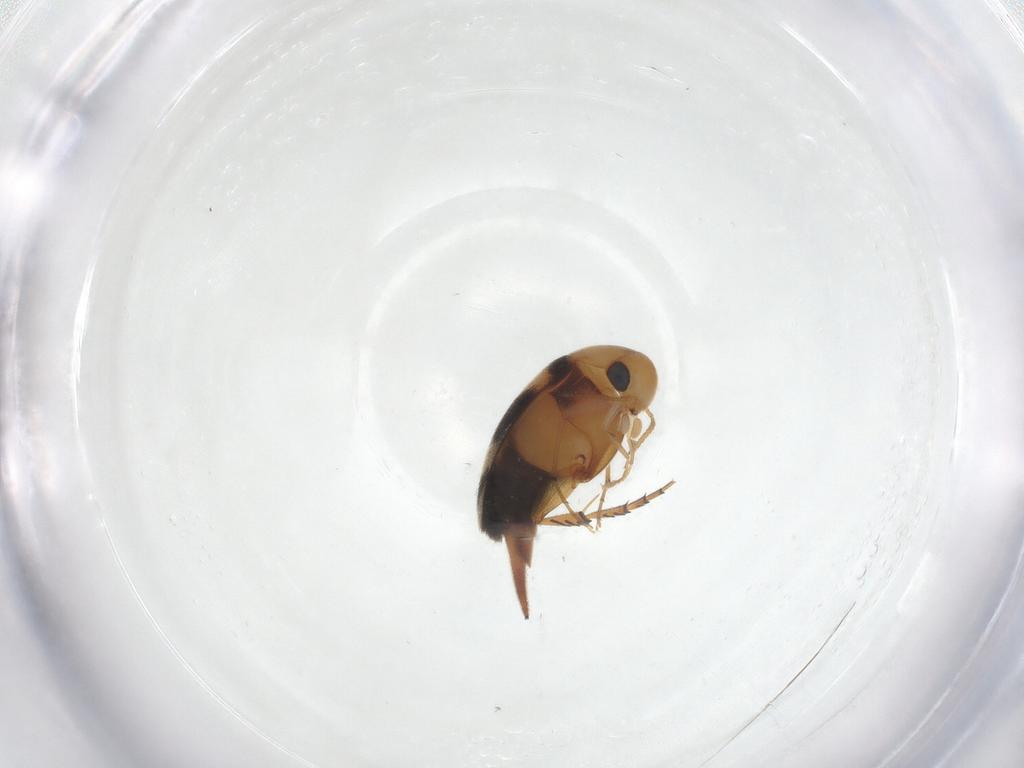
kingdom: Animalia
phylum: Arthropoda
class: Insecta
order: Coleoptera
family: Mordellidae
